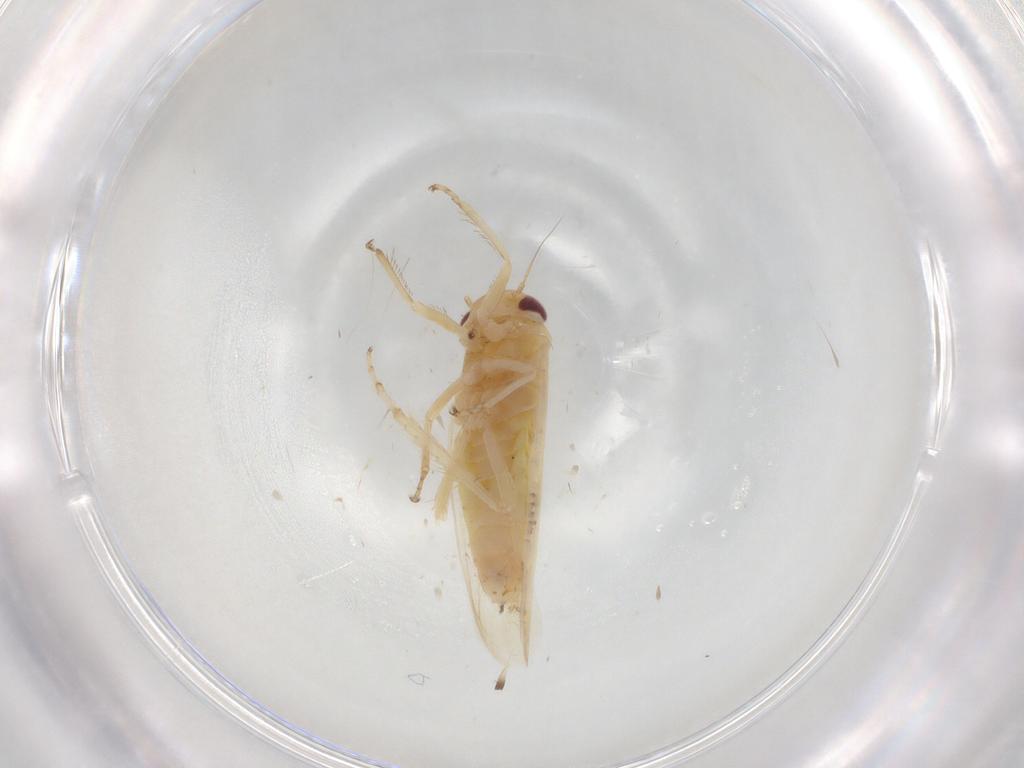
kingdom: Animalia
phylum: Arthropoda
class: Insecta
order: Hemiptera
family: Cicadellidae
